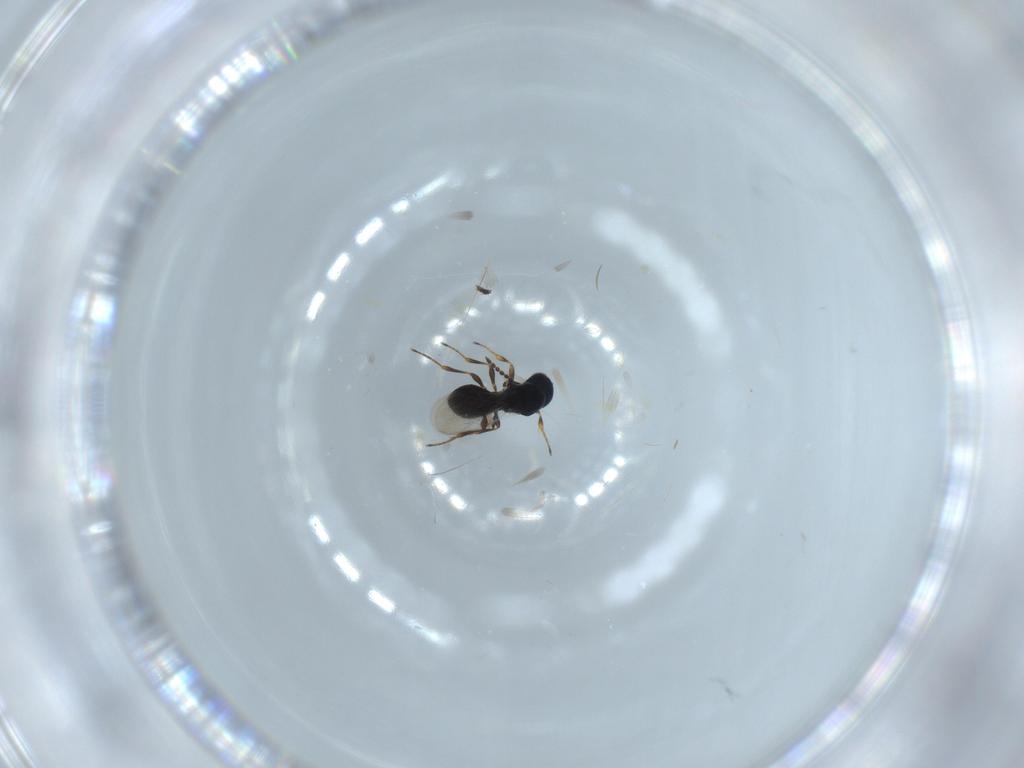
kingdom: Animalia
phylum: Arthropoda
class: Insecta
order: Hymenoptera
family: Platygastridae
